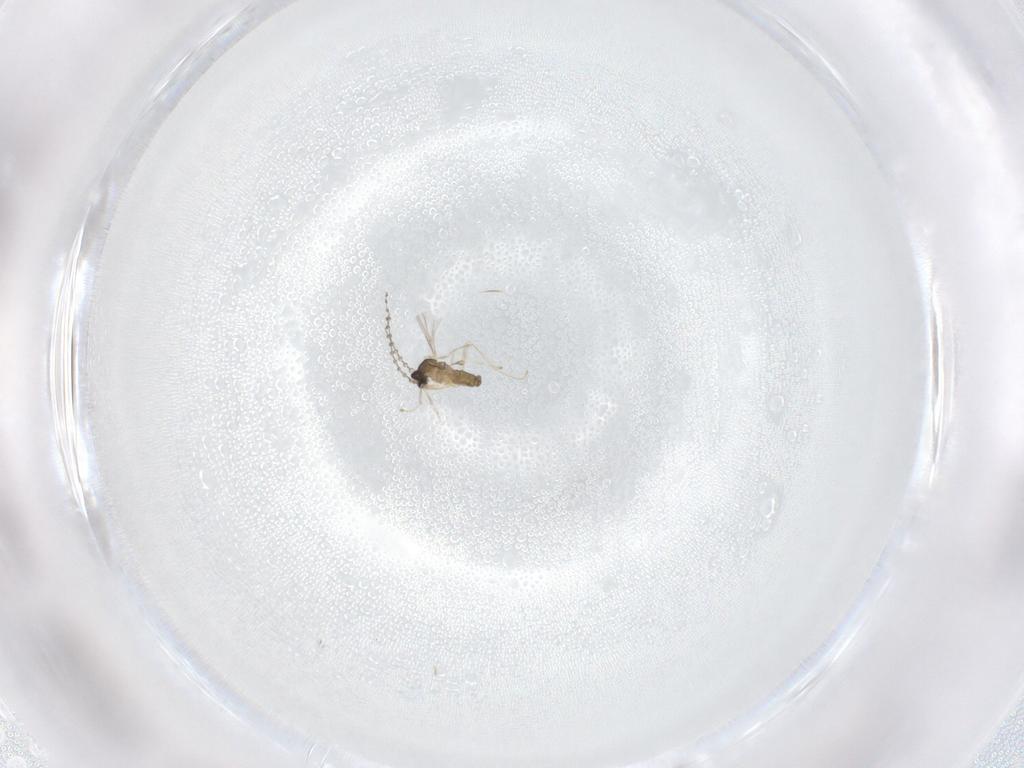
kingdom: Animalia
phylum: Arthropoda
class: Insecta
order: Diptera
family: Cecidomyiidae
